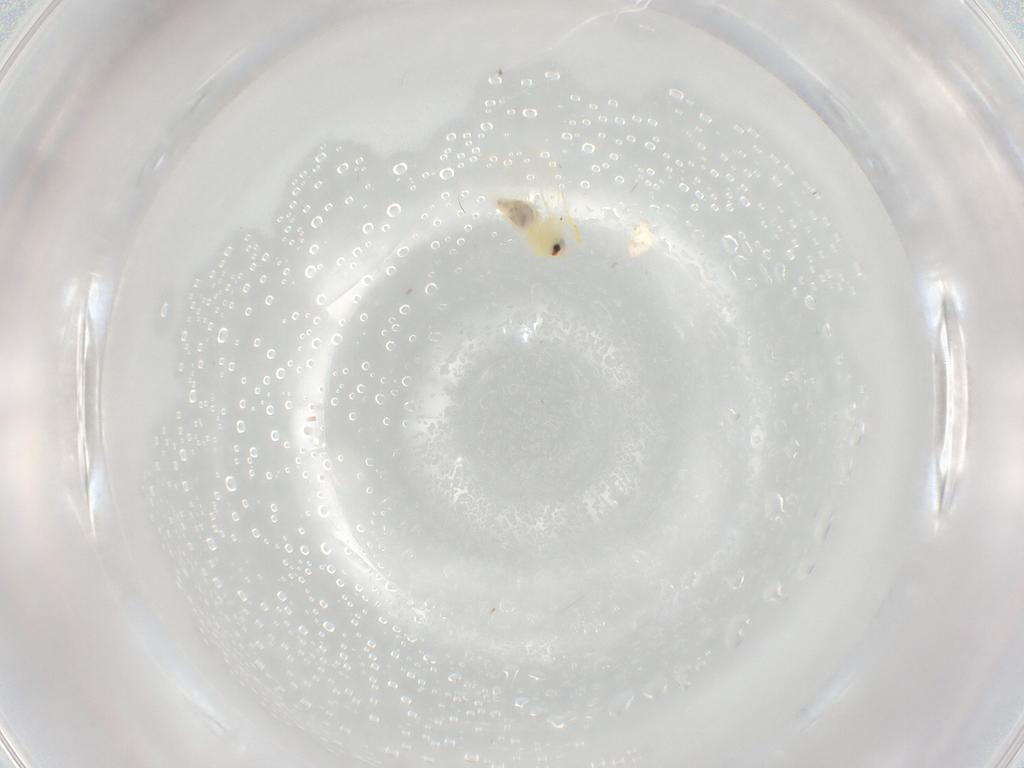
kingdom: Animalia
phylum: Arthropoda
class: Insecta
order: Hemiptera
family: Aleyrodidae
